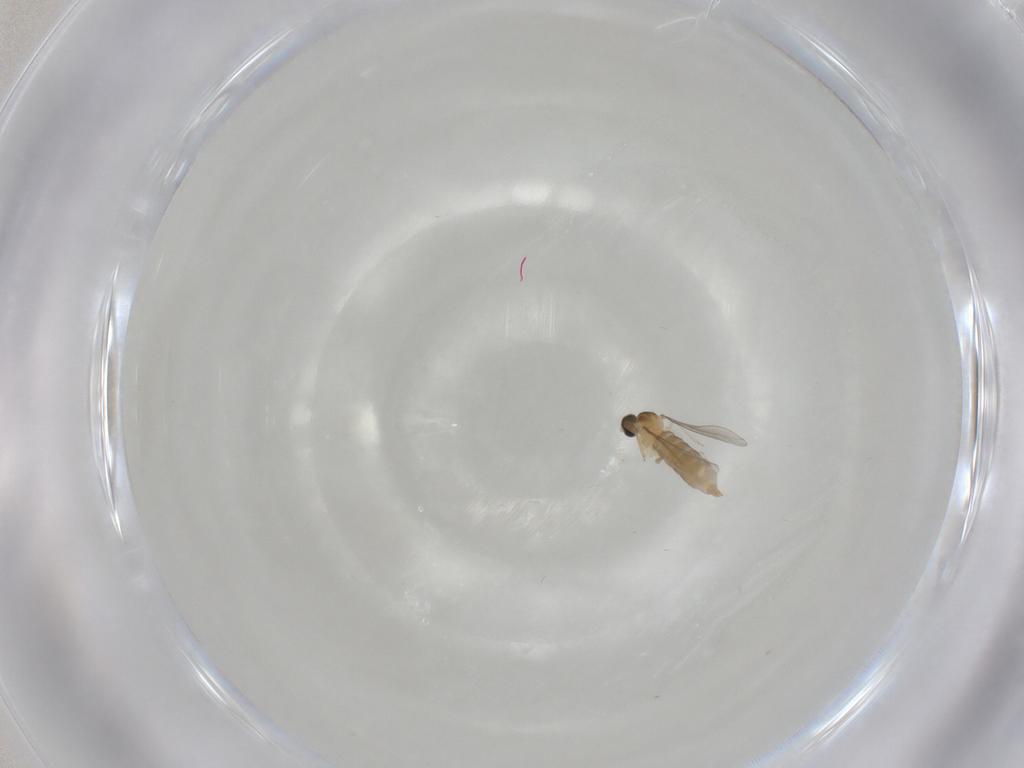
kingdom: Animalia
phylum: Arthropoda
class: Insecta
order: Diptera
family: Cecidomyiidae
